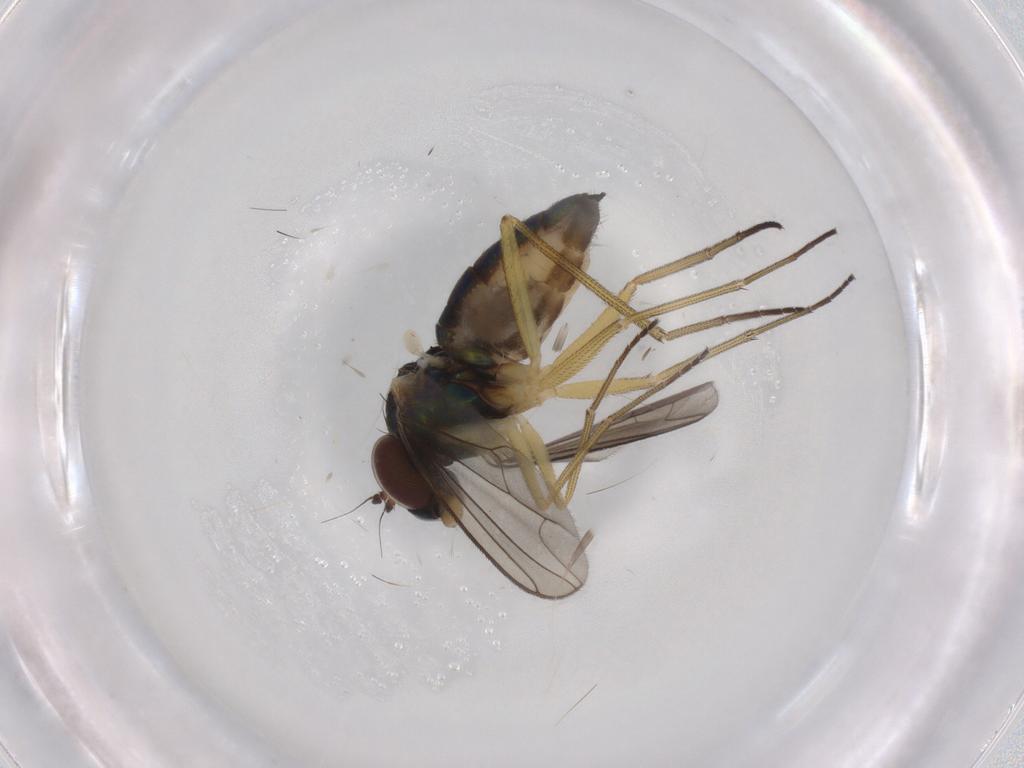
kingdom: Animalia
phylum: Arthropoda
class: Insecta
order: Diptera
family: Dolichopodidae
